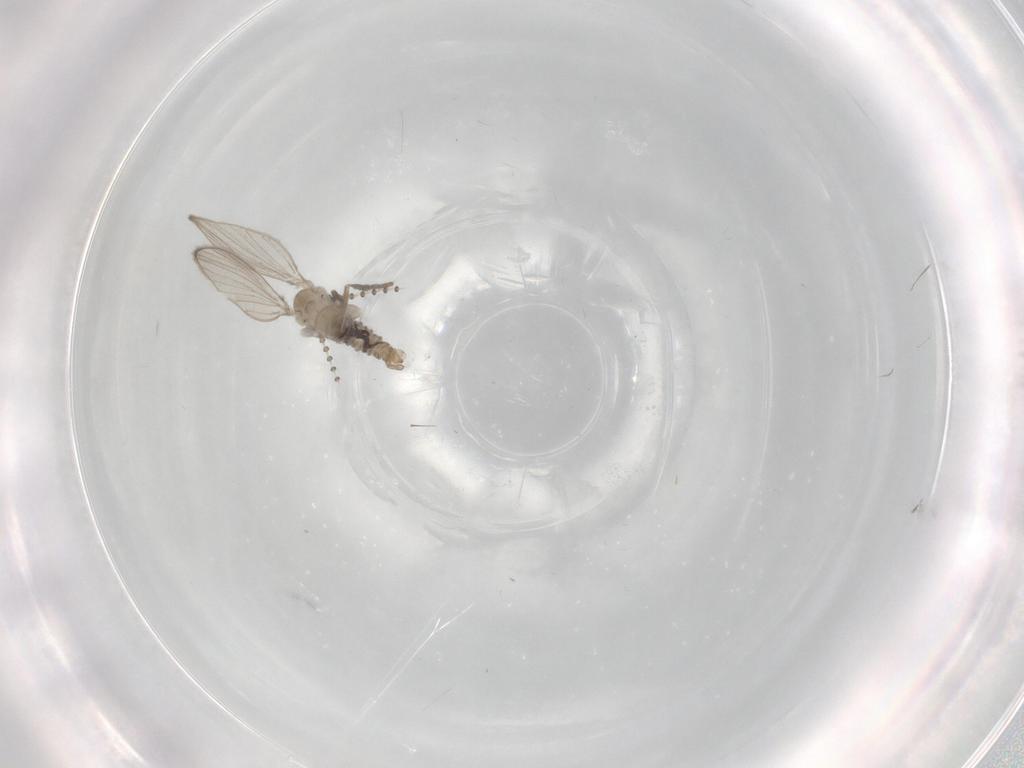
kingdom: Animalia
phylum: Arthropoda
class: Insecta
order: Diptera
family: Psychodidae
